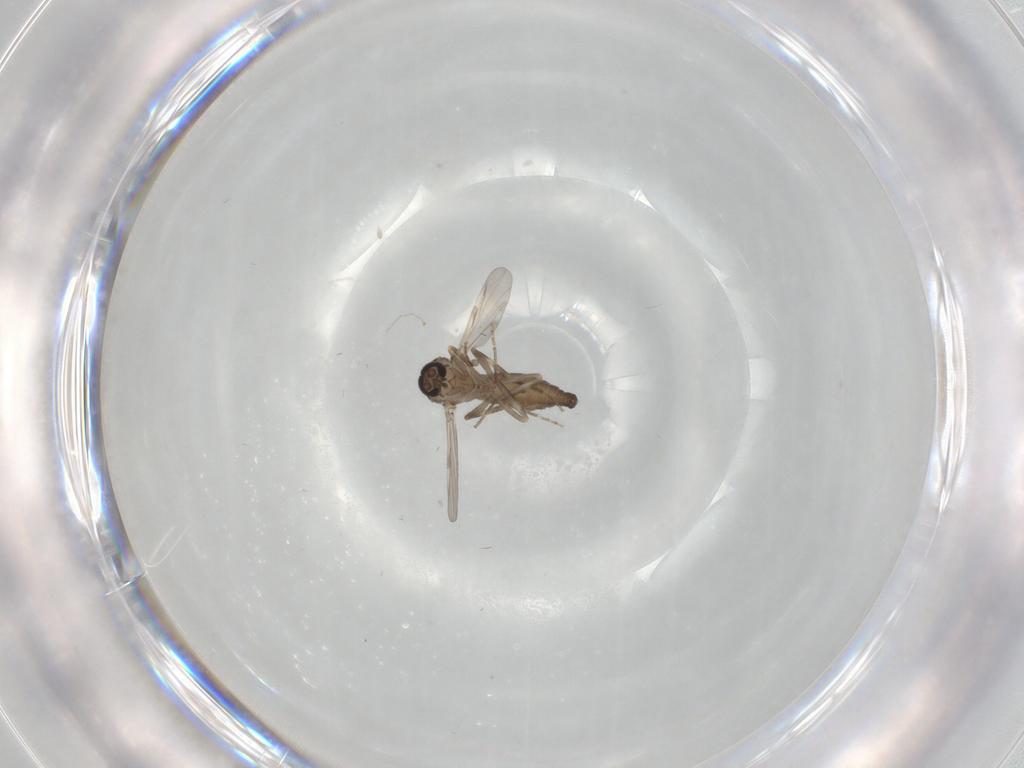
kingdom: Animalia
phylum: Arthropoda
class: Insecta
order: Diptera
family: Ceratopogonidae
